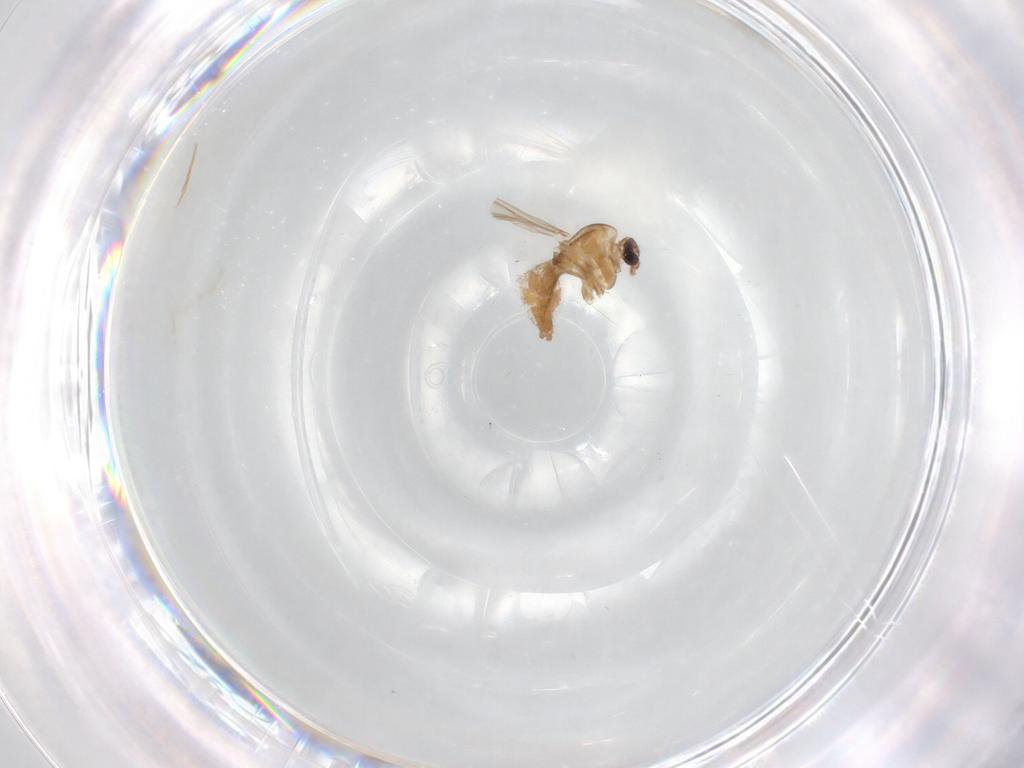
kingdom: Animalia
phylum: Arthropoda
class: Insecta
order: Diptera
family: Chironomidae
